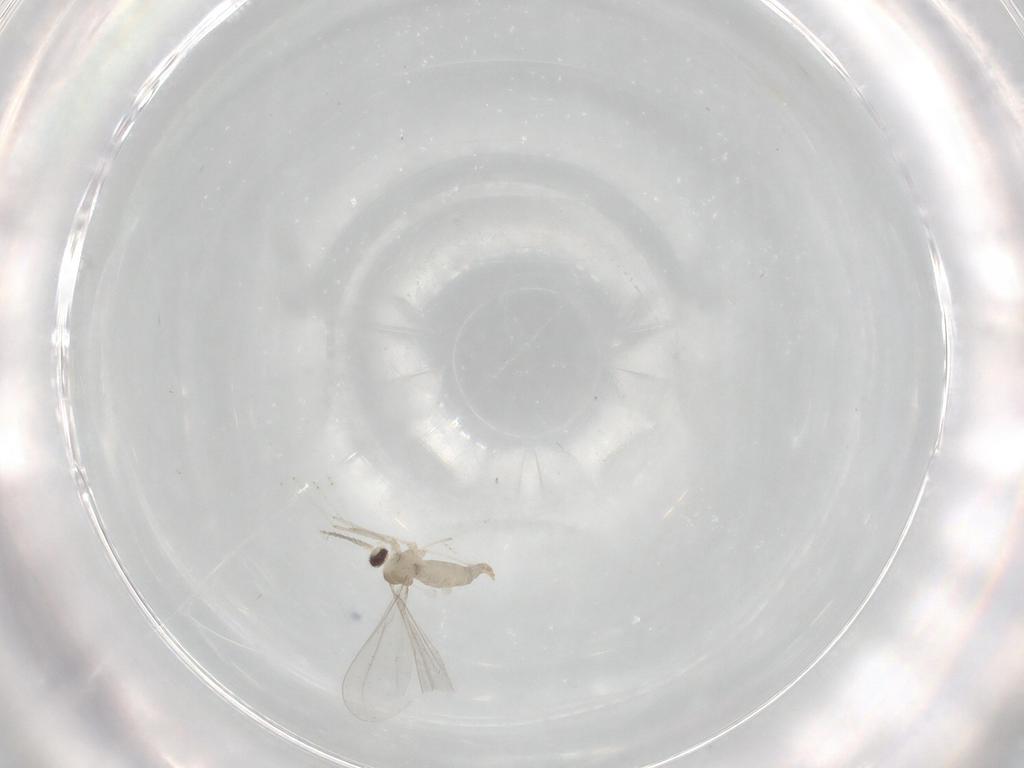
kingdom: Animalia
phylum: Arthropoda
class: Insecta
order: Diptera
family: Cecidomyiidae
